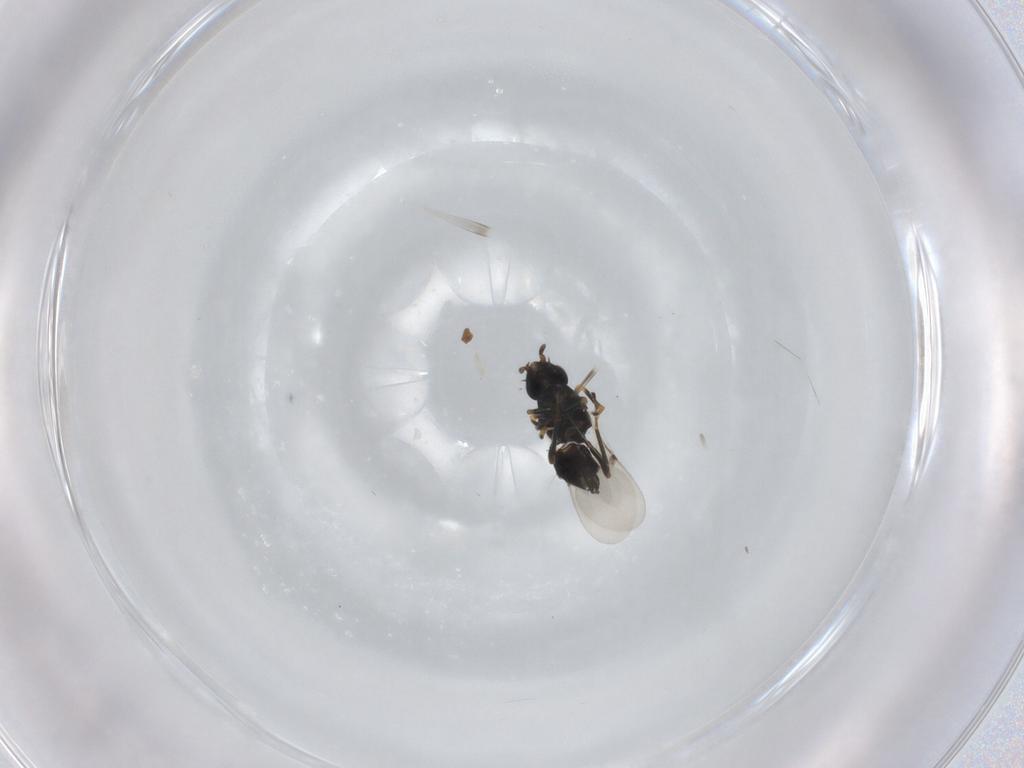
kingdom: Animalia
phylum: Arthropoda
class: Insecta
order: Hymenoptera
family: Encyrtidae
